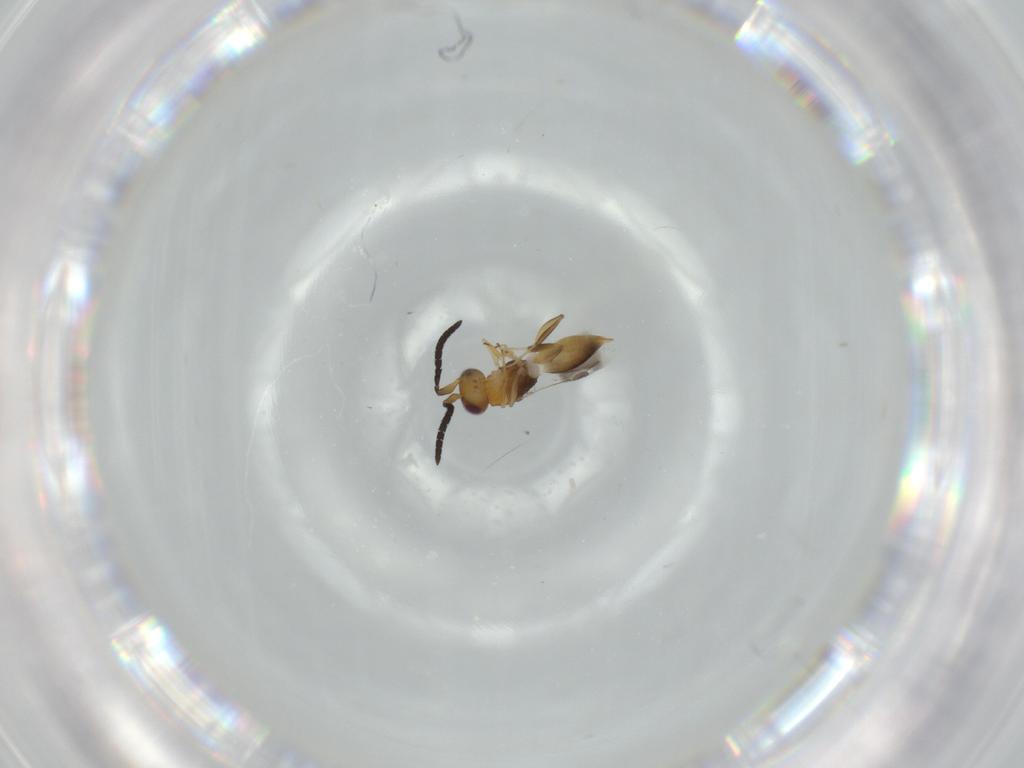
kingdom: Animalia
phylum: Arthropoda
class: Insecta
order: Hymenoptera
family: Megaspilidae
